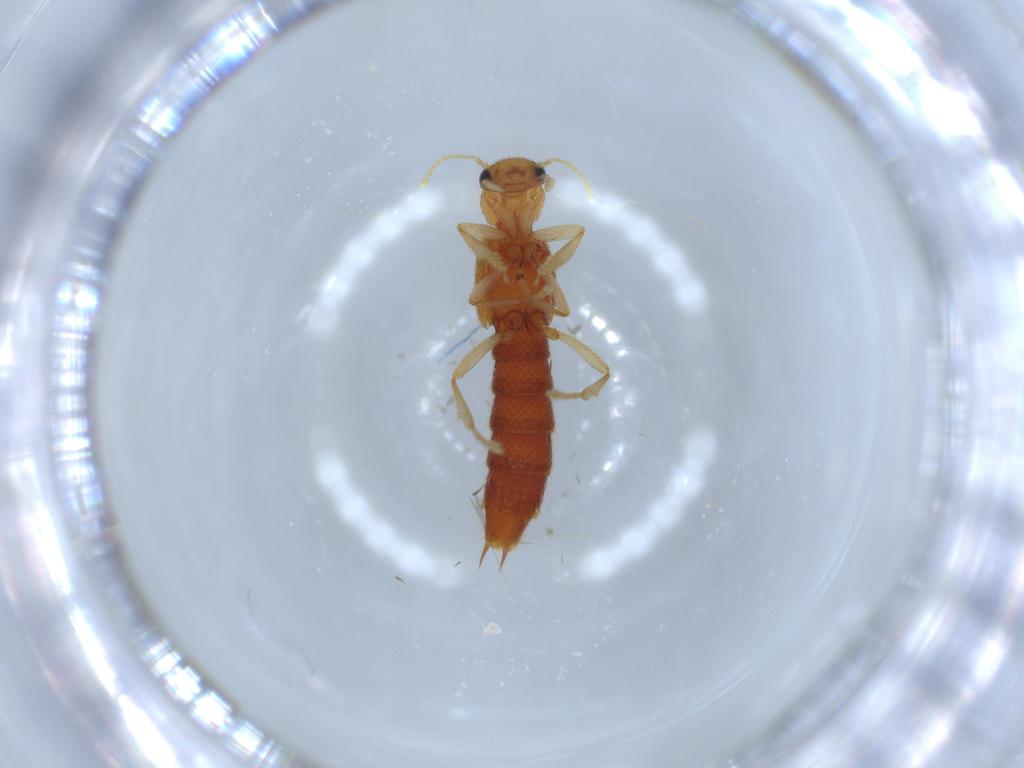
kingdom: Animalia
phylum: Arthropoda
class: Insecta
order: Coleoptera
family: Staphylinidae
